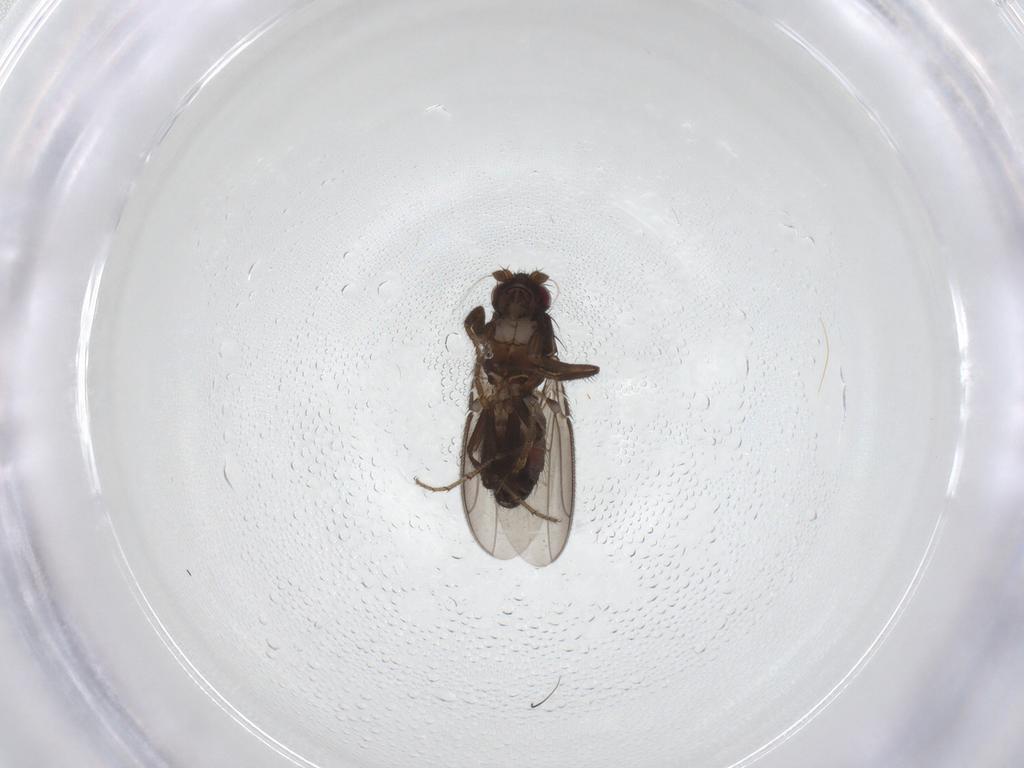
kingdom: Animalia
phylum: Arthropoda
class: Insecta
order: Diptera
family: Sphaeroceridae
